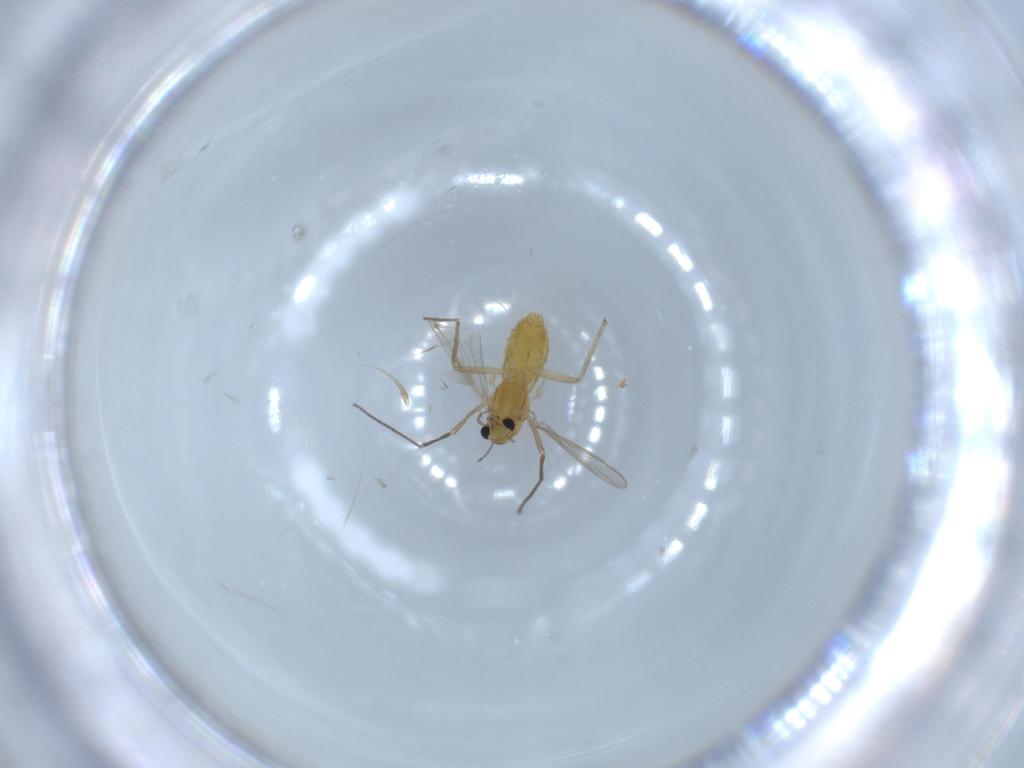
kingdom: Animalia
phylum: Arthropoda
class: Insecta
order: Diptera
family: Chironomidae
